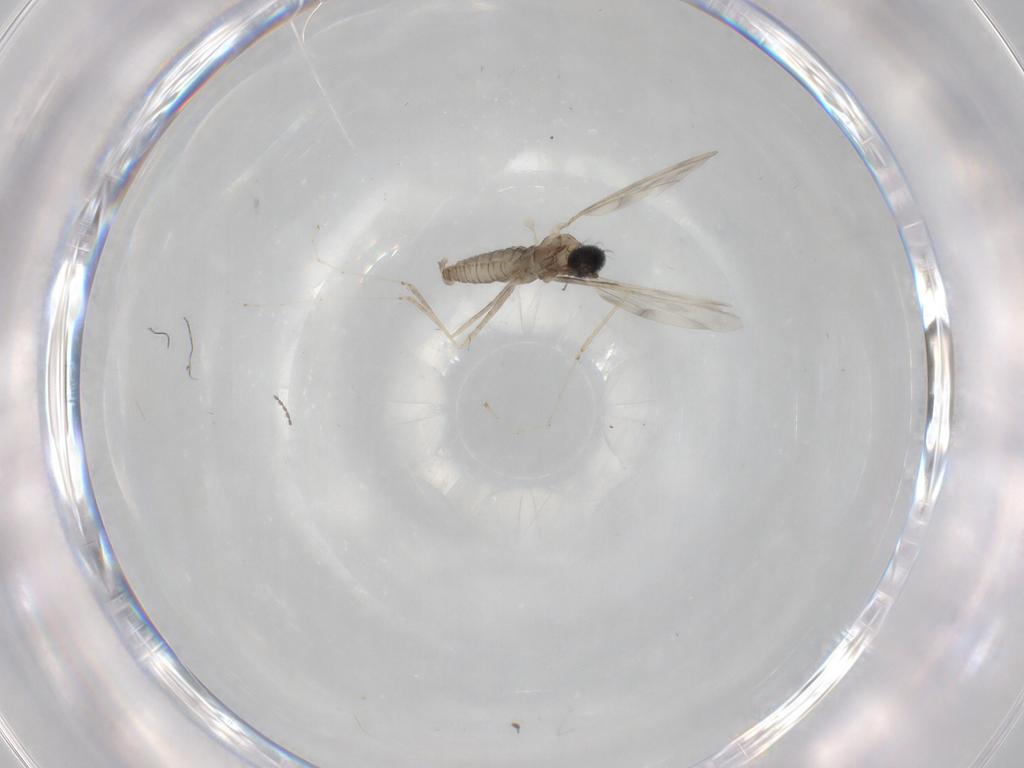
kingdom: Animalia
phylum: Arthropoda
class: Insecta
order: Diptera
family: Cecidomyiidae
